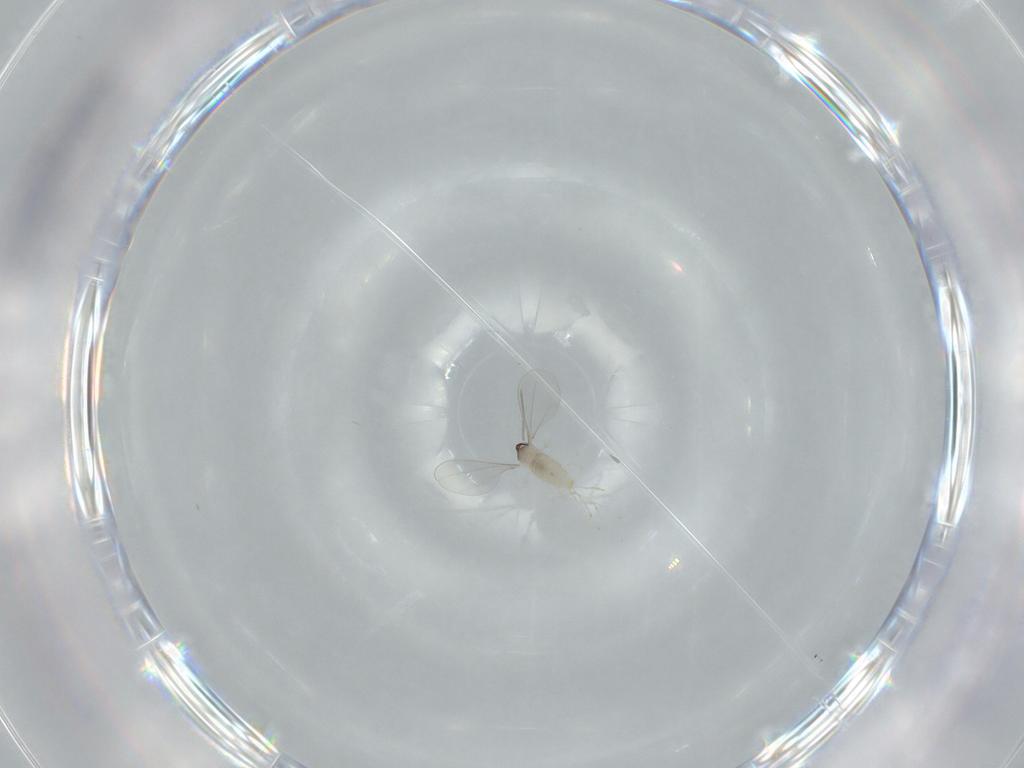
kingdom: Animalia
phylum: Arthropoda
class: Insecta
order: Diptera
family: Cecidomyiidae
